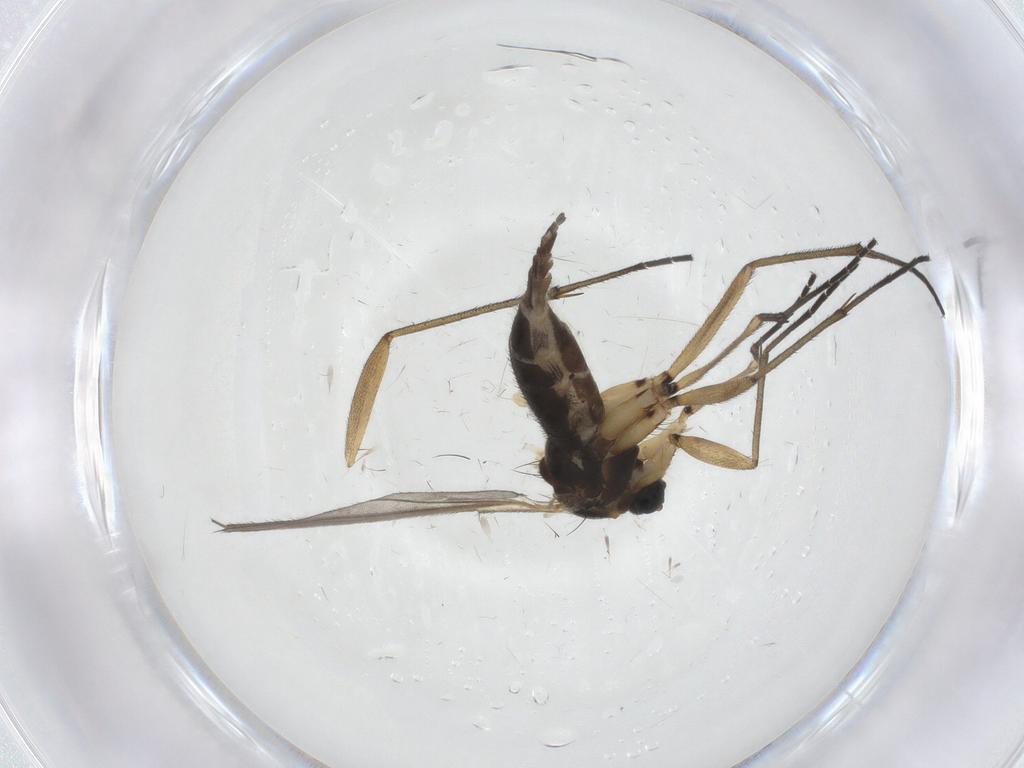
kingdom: Animalia
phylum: Arthropoda
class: Insecta
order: Diptera
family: Sciaridae
